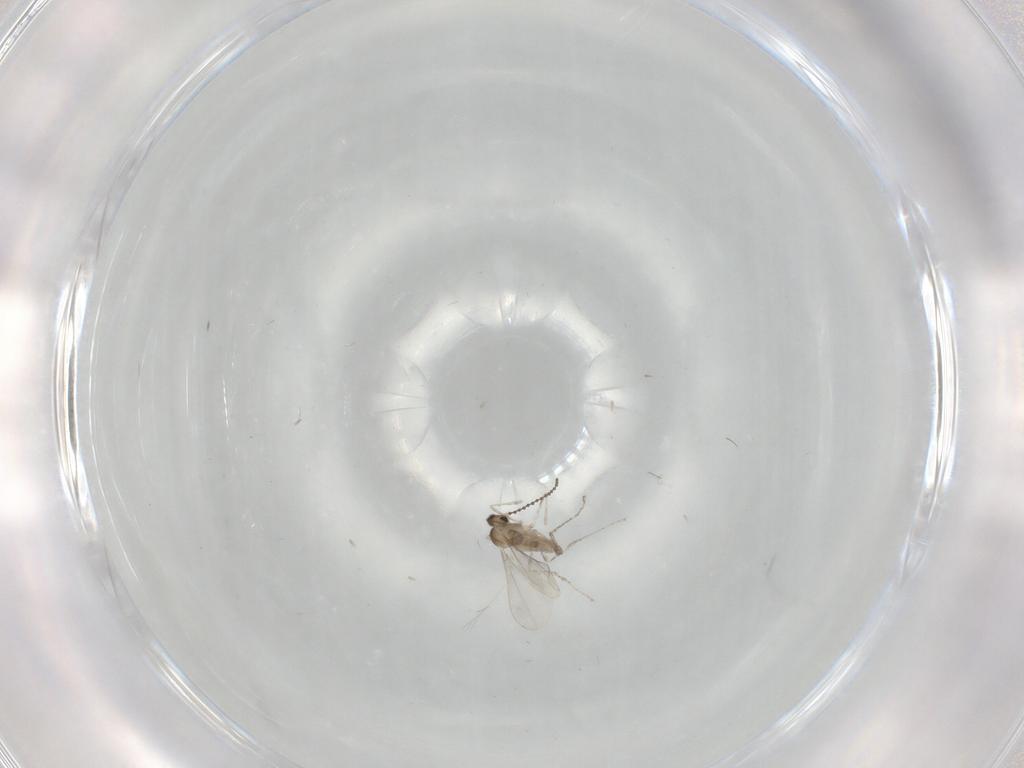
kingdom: Animalia
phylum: Arthropoda
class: Insecta
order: Diptera
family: Cecidomyiidae
